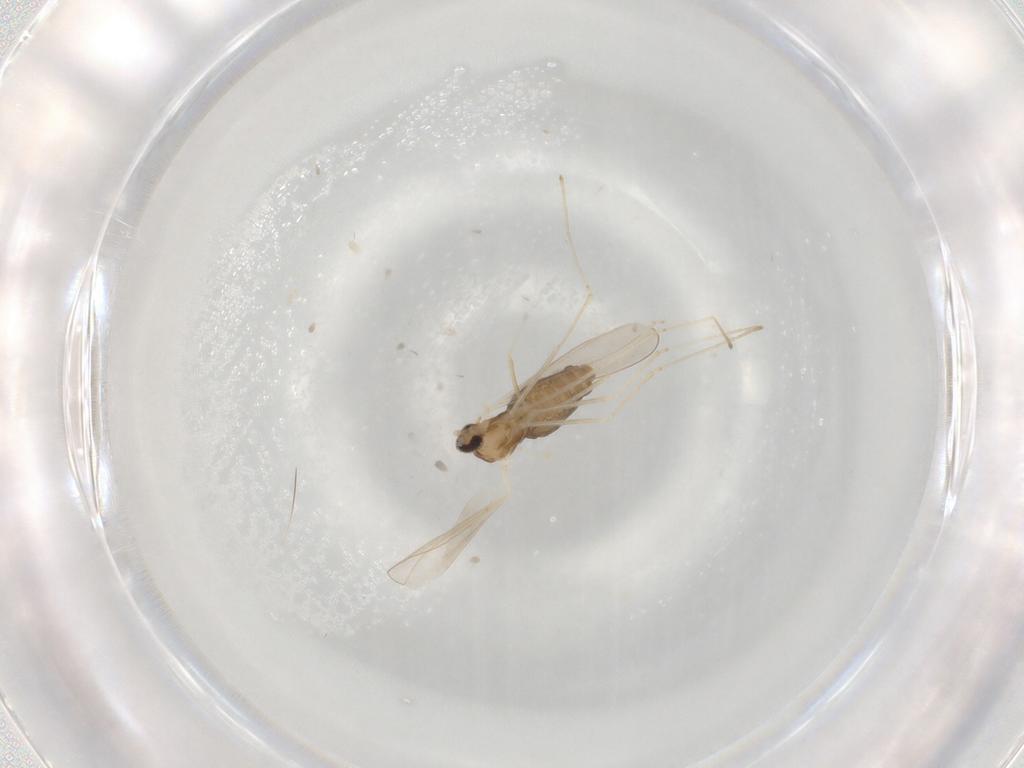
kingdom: Animalia
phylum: Arthropoda
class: Insecta
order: Diptera
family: Cecidomyiidae
